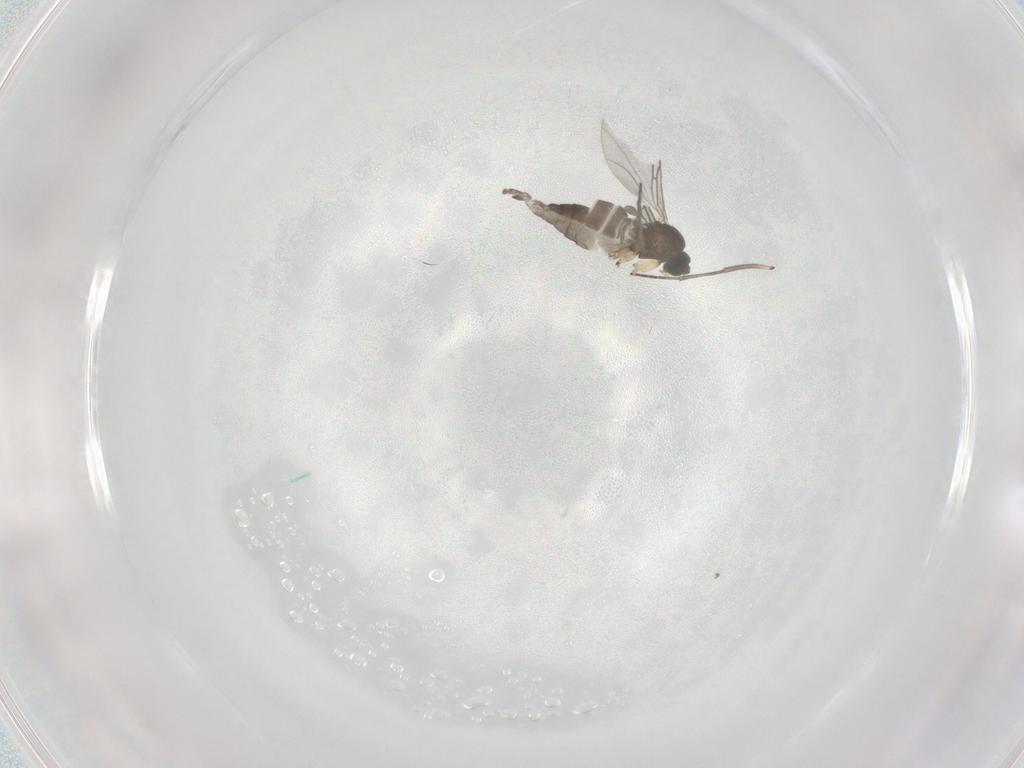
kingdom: Animalia
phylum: Arthropoda
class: Insecta
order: Diptera
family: Sciaridae
